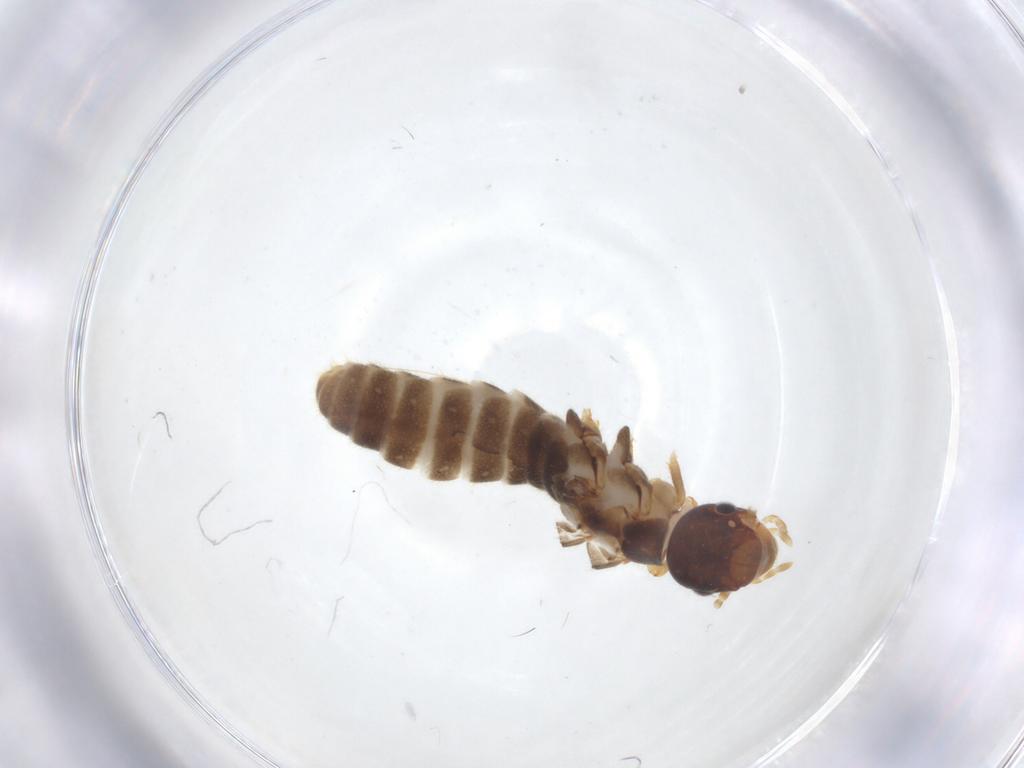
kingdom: Animalia
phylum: Arthropoda
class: Insecta
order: Blattodea
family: Termitidae
